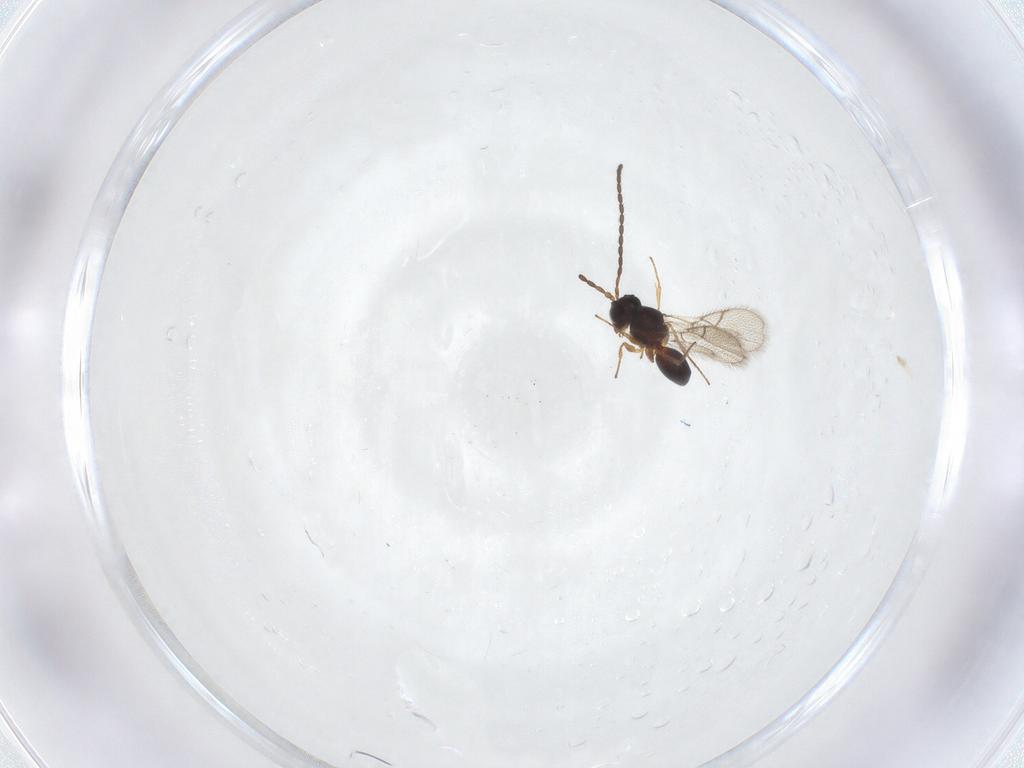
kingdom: Animalia
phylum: Arthropoda
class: Insecta
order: Hymenoptera
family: Figitidae
